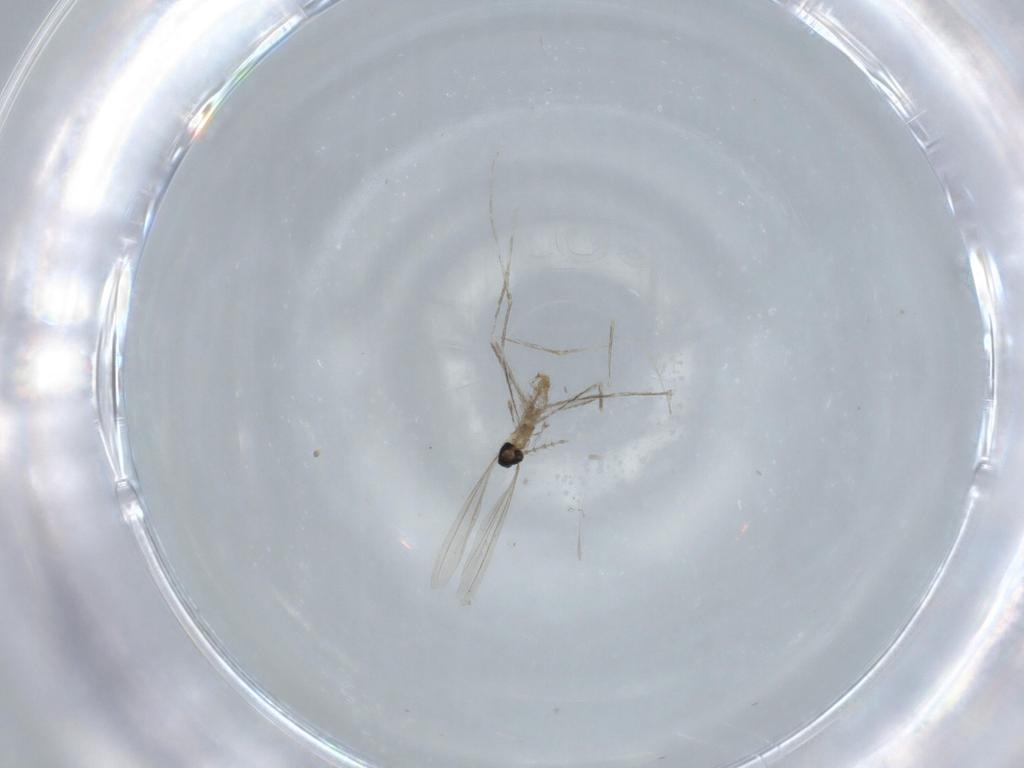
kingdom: Animalia
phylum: Arthropoda
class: Insecta
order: Diptera
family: Cecidomyiidae
